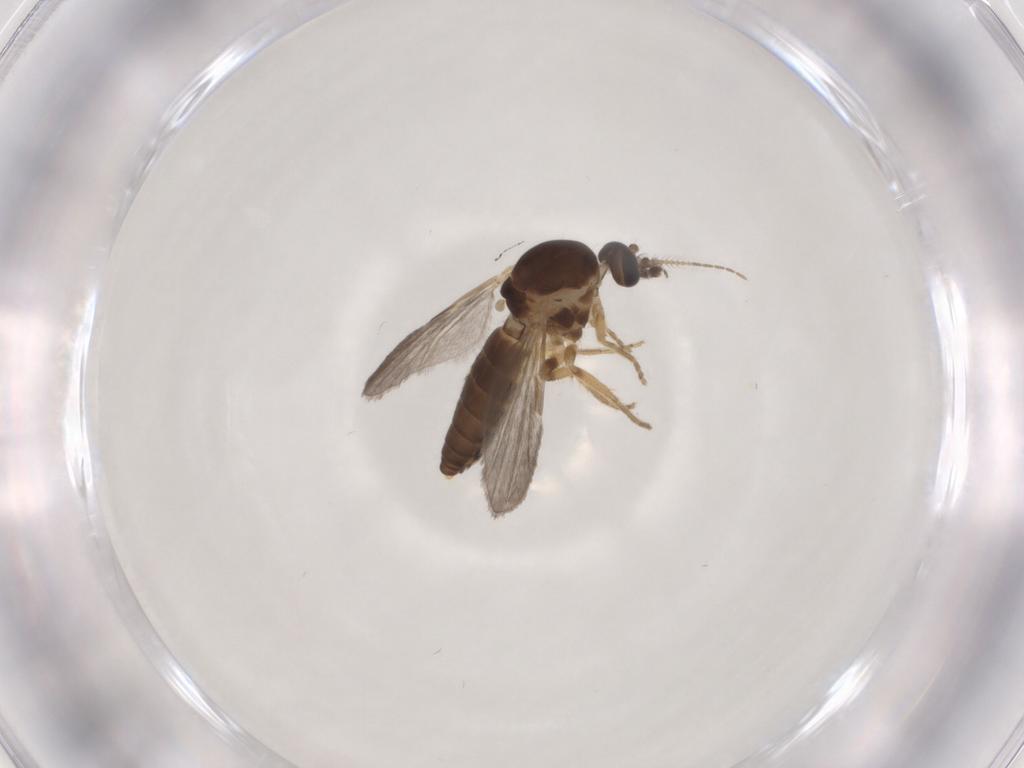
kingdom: Animalia
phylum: Arthropoda
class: Insecta
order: Diptera
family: Ceratopogonidae
